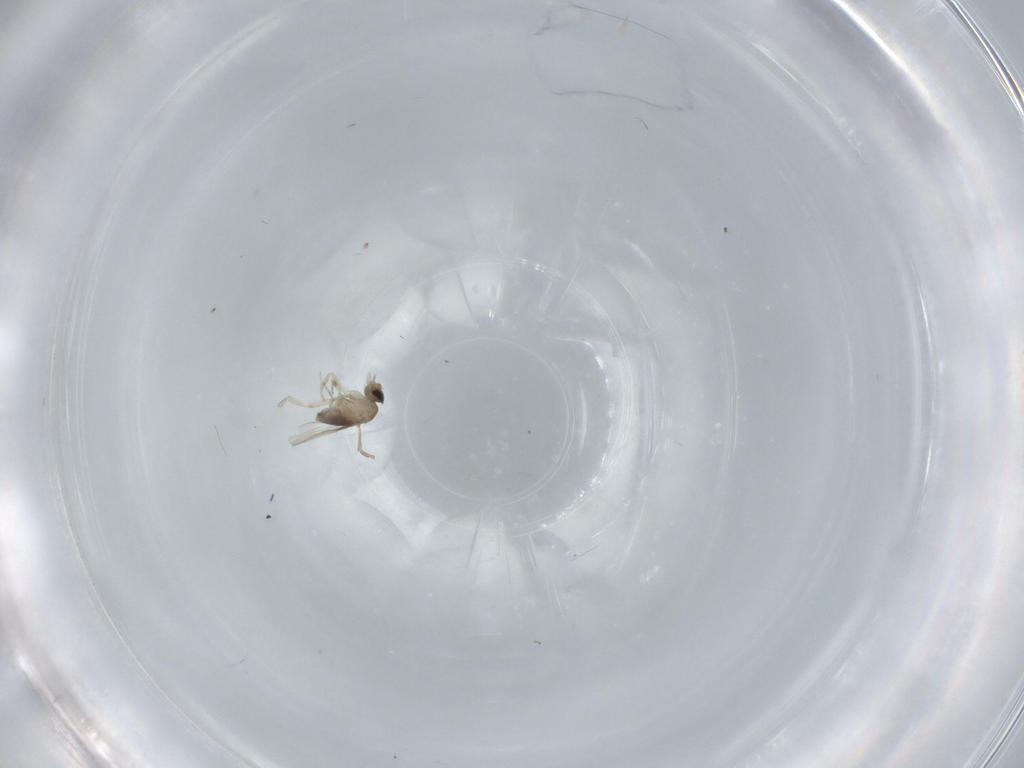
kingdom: Animalia
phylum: Arthropoda
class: Insecta
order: Diptera
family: Phoridae
